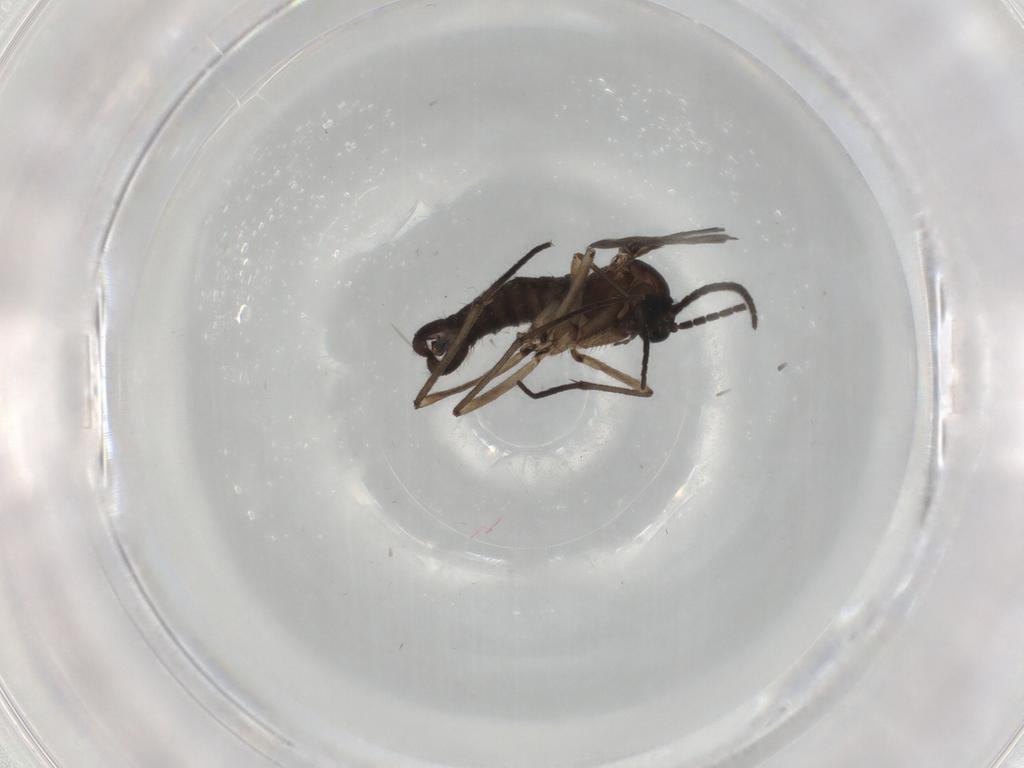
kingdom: Animalia
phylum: Arthropoda
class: Insecta
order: Diptera
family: Sciaridae
